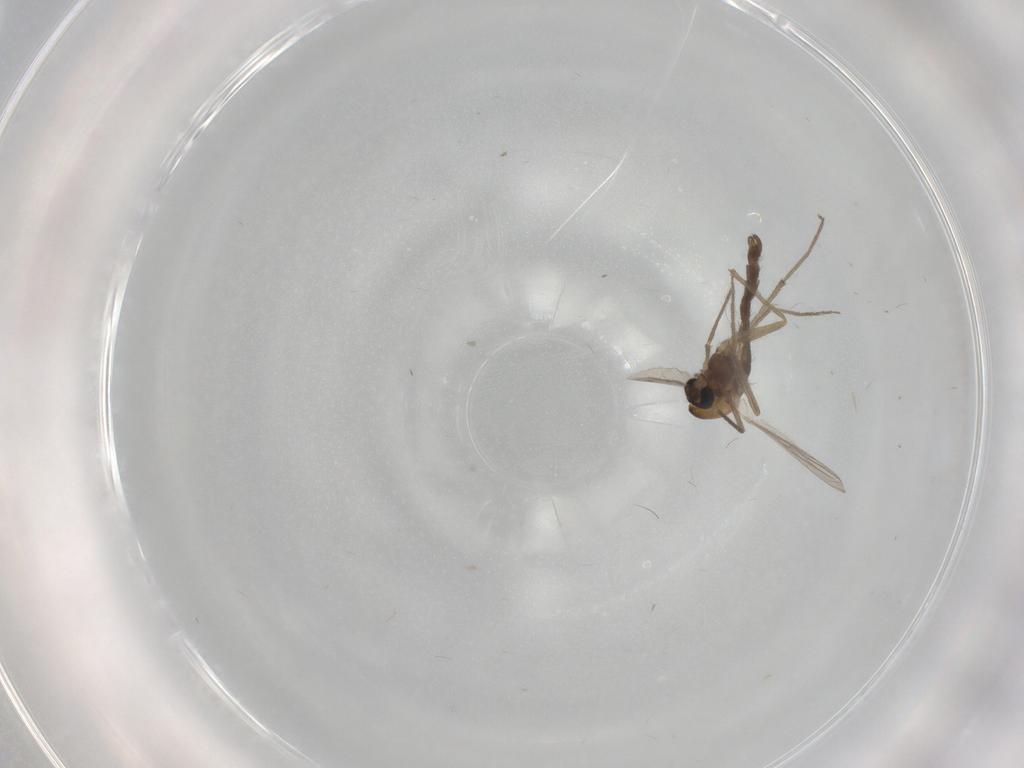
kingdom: Animalia
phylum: Arthropoda
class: Insecta
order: Diptera
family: Chironomidae
